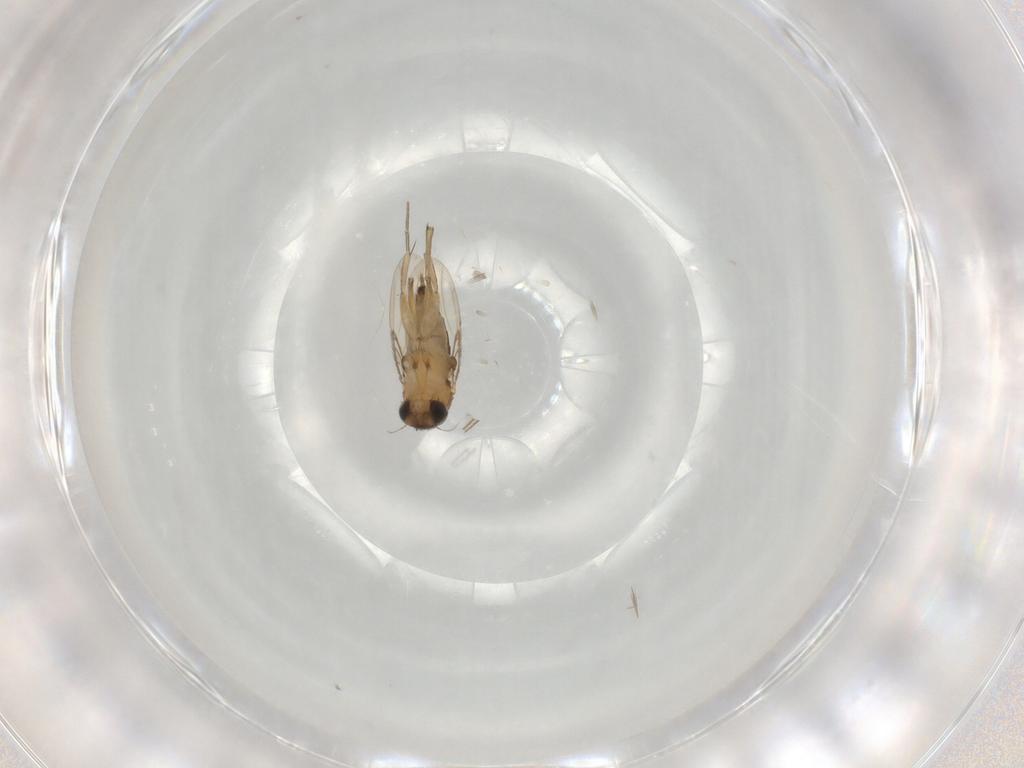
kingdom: Animalia
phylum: Arthropoda
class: Insecta
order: Diptera
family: Phoridae
